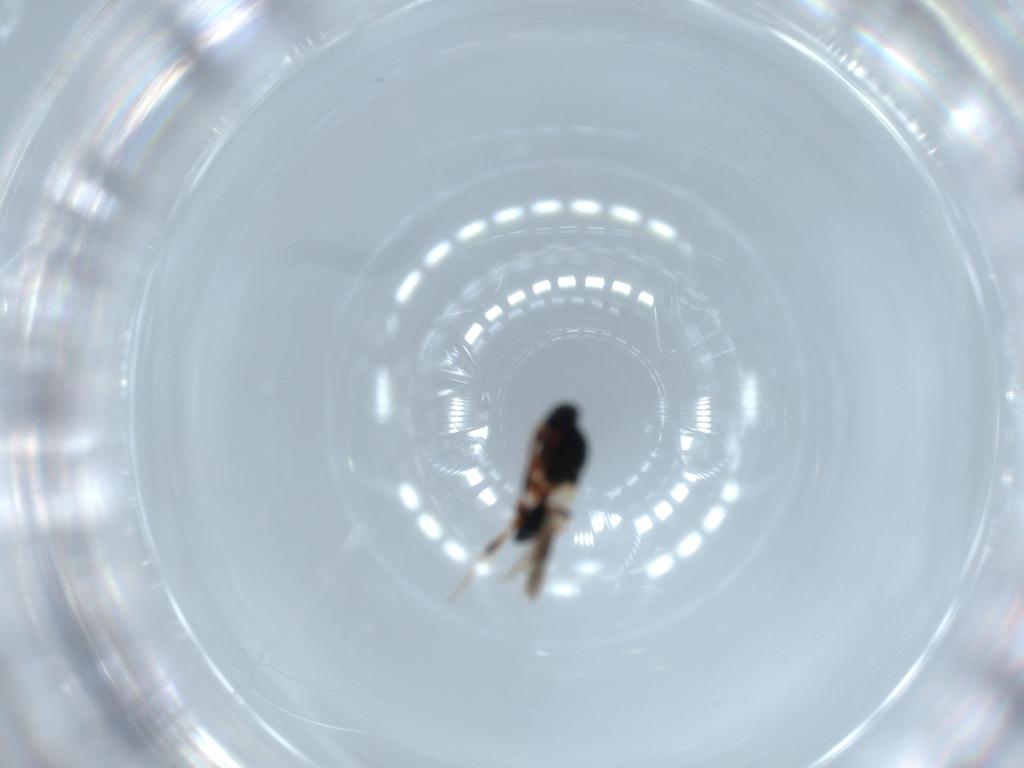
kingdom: Animalia
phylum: Arthropoda
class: Insecta
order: Hymenoptera
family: Platygastridae
